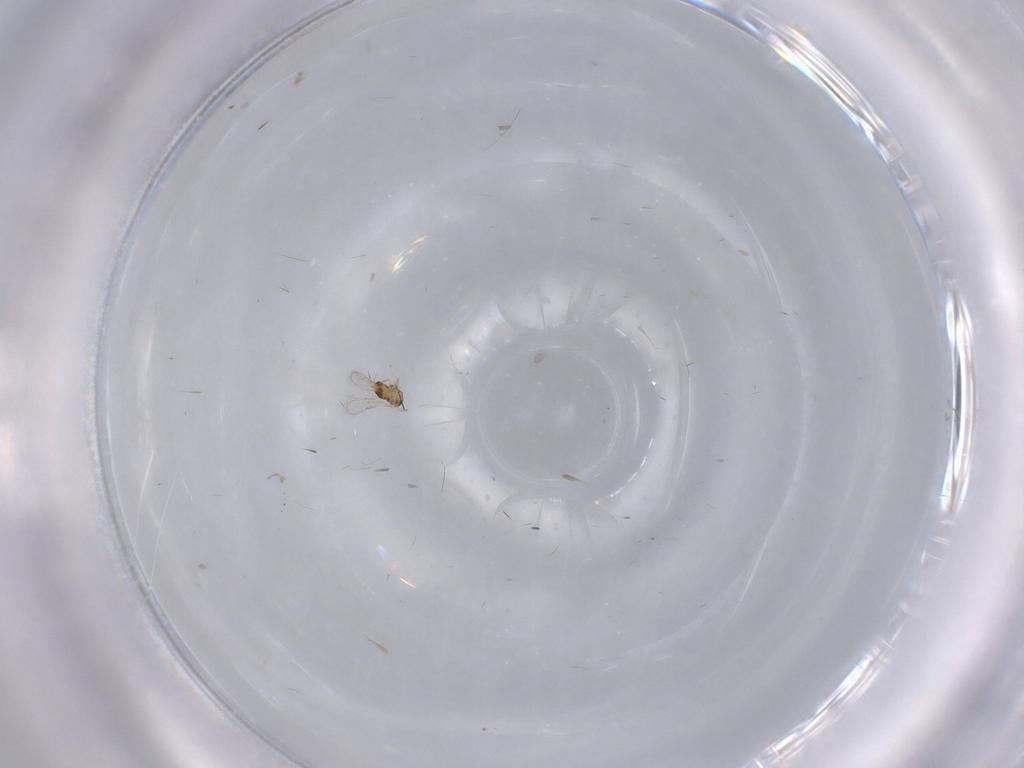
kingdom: Animalia
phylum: Arthropoda
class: Insecta
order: Hymenoptera
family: Aphelinidae
